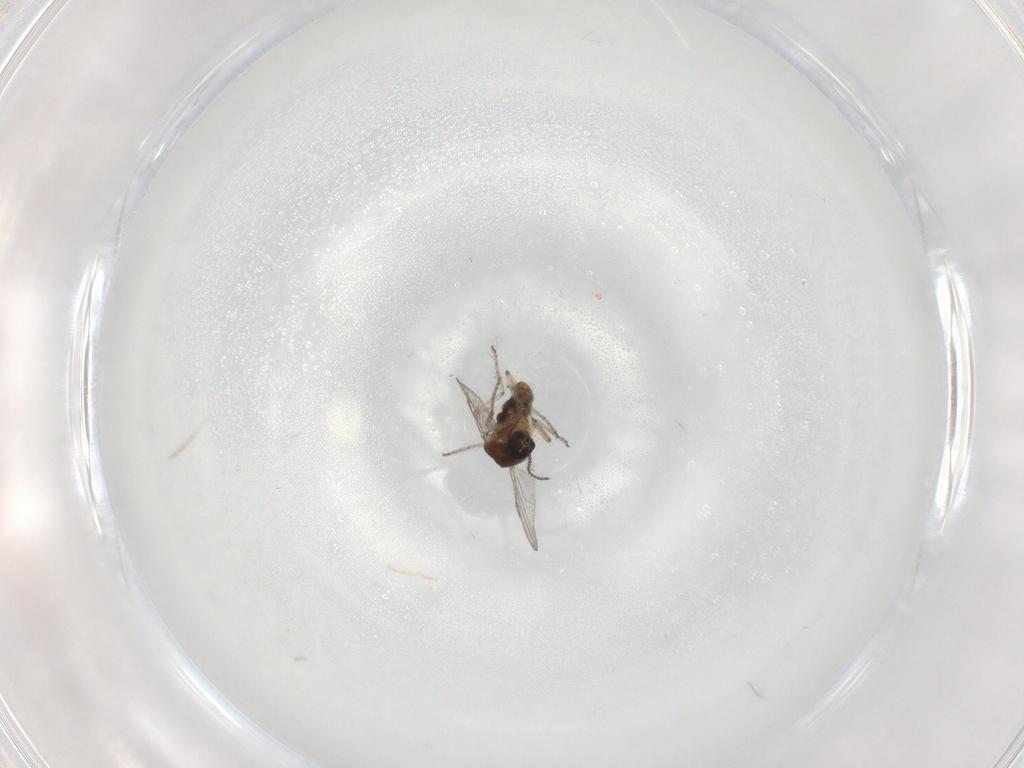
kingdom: Animalia
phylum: Arthropoda
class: Insecta
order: Diptera
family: Ceratopogonidae
